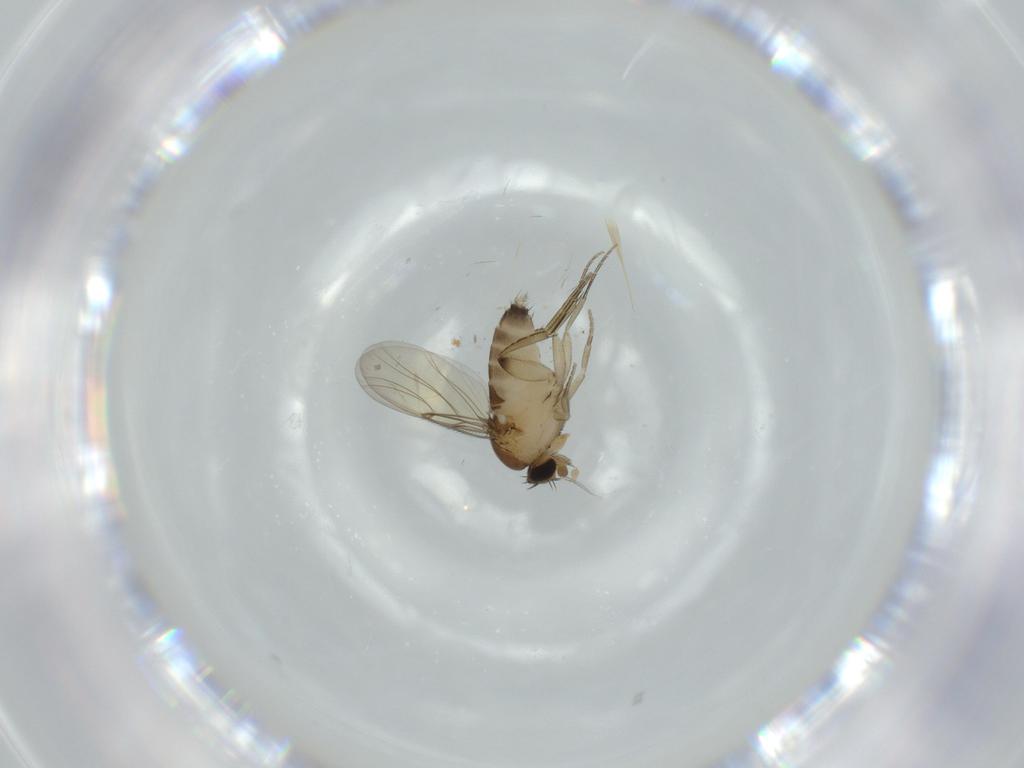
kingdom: Animalia
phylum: Arthropoda
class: Insecta
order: Diptera
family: Phoridae
